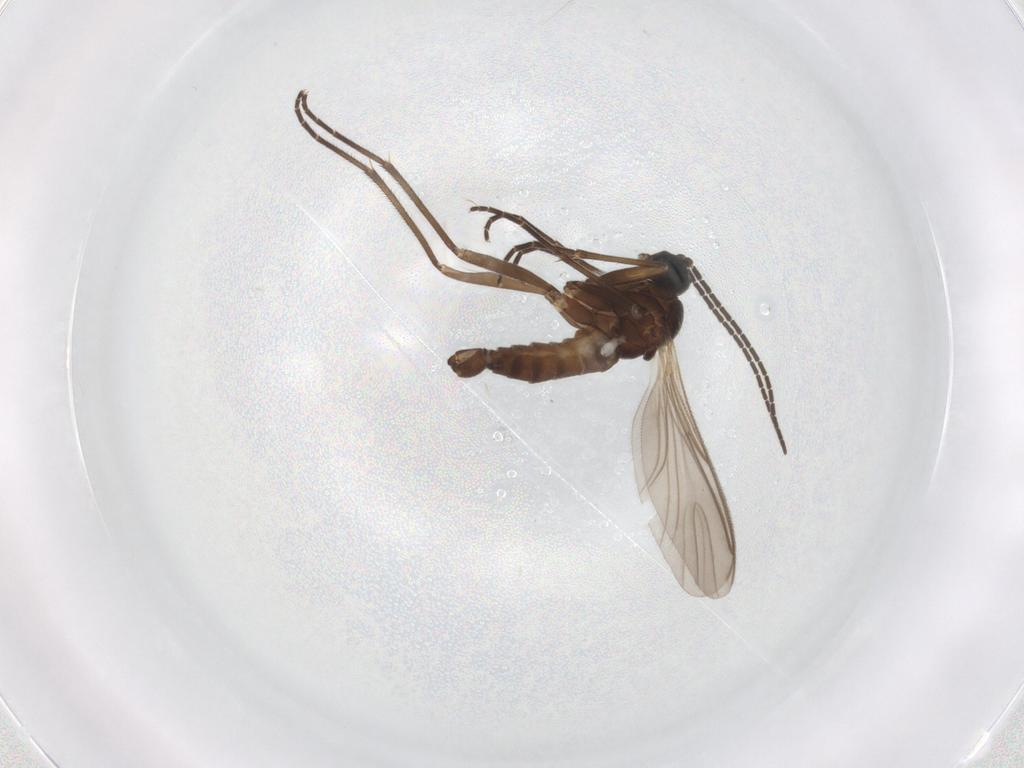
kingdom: Animalia
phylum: Arthropoda
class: Insecta
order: Diptera
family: Sciaridae
